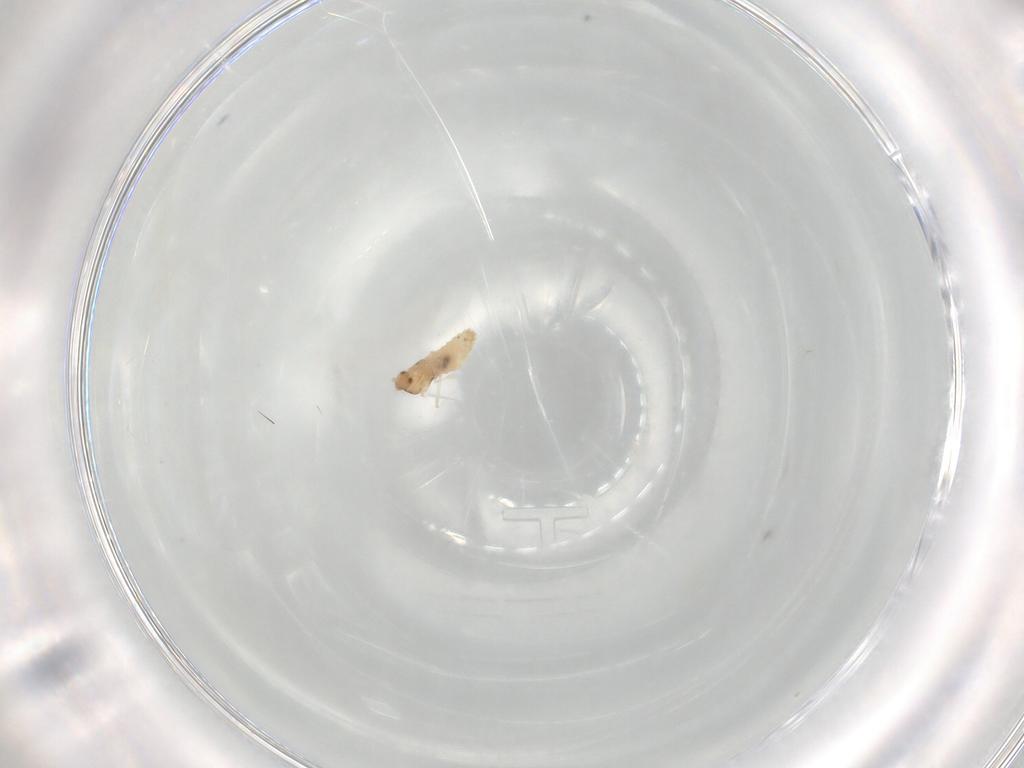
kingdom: Animalia
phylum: Arthropoda
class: Insecta
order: Diptera
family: Cecidomyiidae
